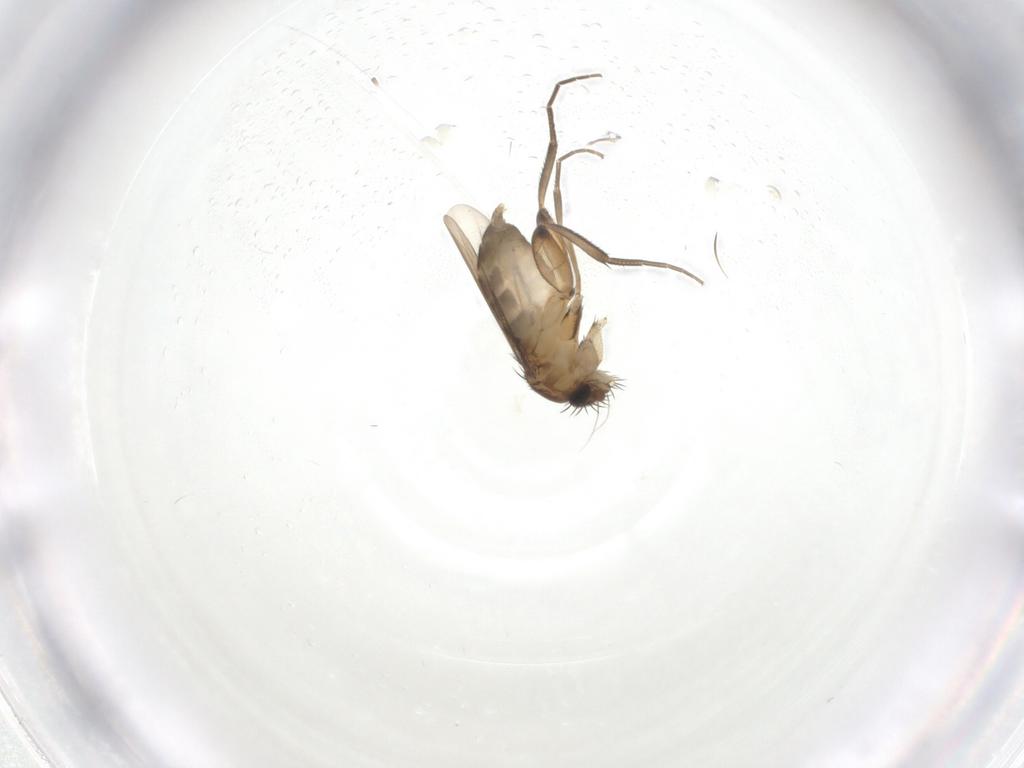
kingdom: Animalia
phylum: Arthropoda
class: Insecta
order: Diptera
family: Phoridae
